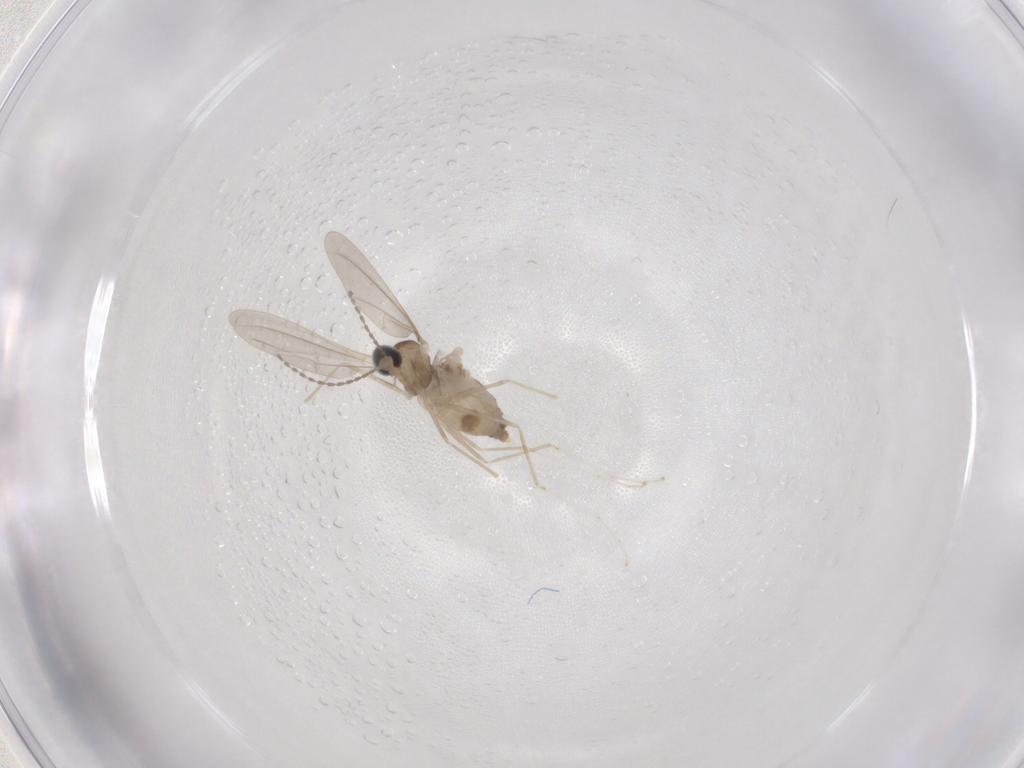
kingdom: Animalia
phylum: Arthropoda
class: Insecta
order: Diptera
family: Cecidomyiidae
